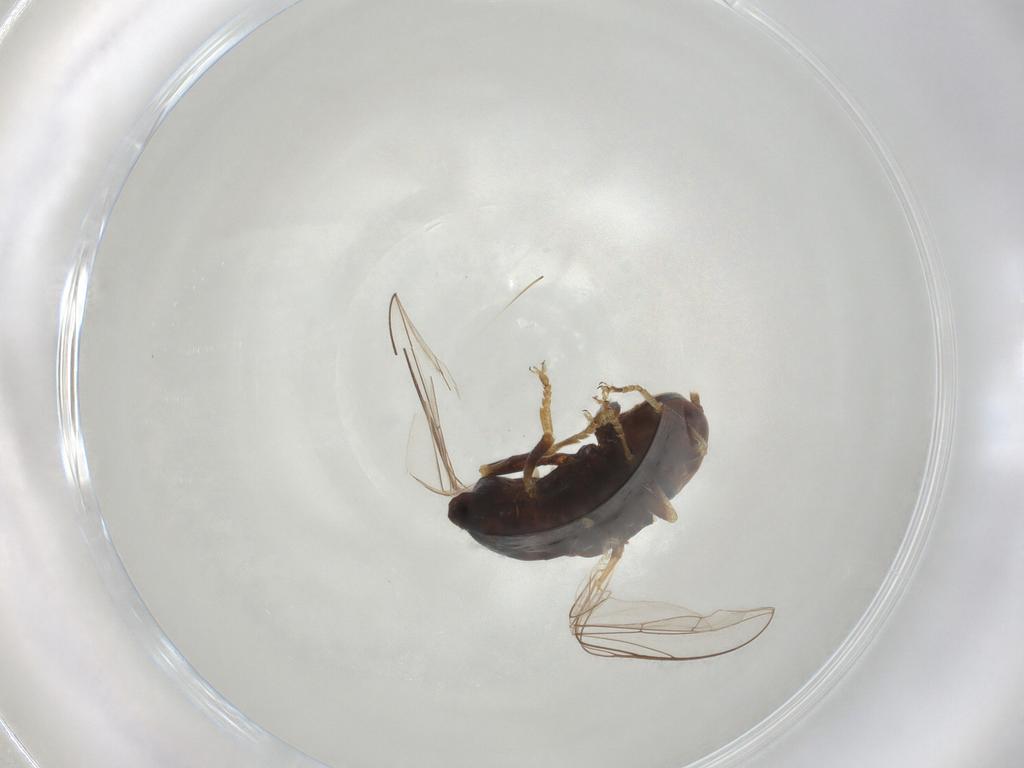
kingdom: Animalia
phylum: Arthropoda
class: Insecta
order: Diptera
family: Pipunculidae
